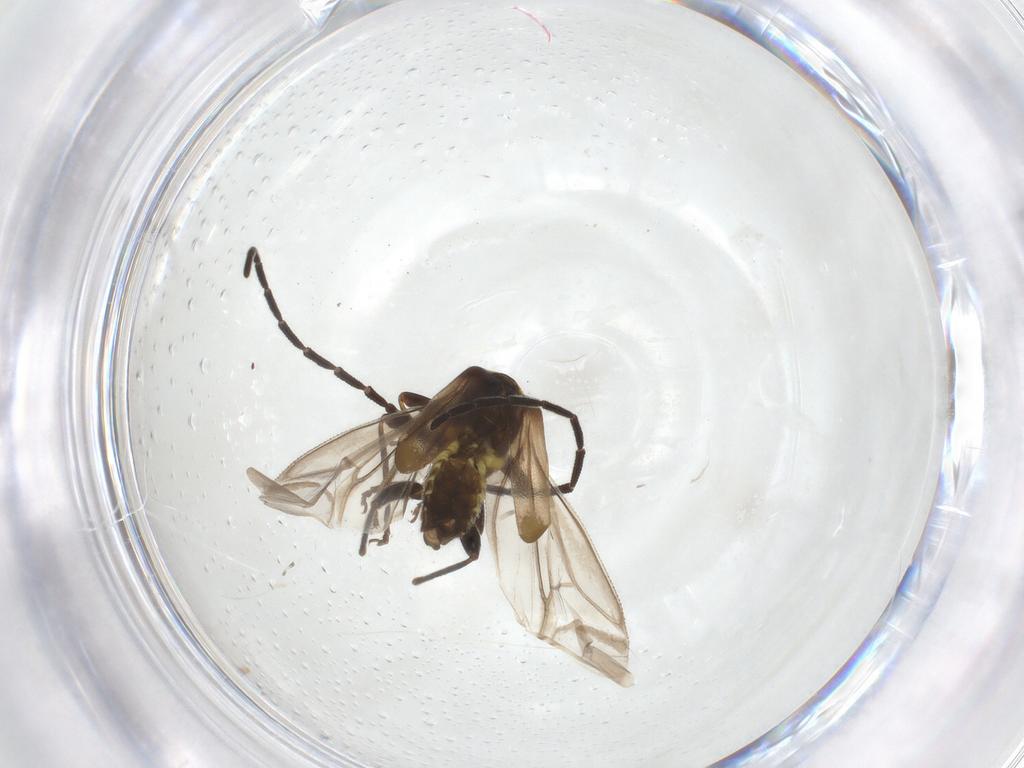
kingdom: Animalia
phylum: Arthropoda
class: Insecta
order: Coleoptera
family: Cantharidae
